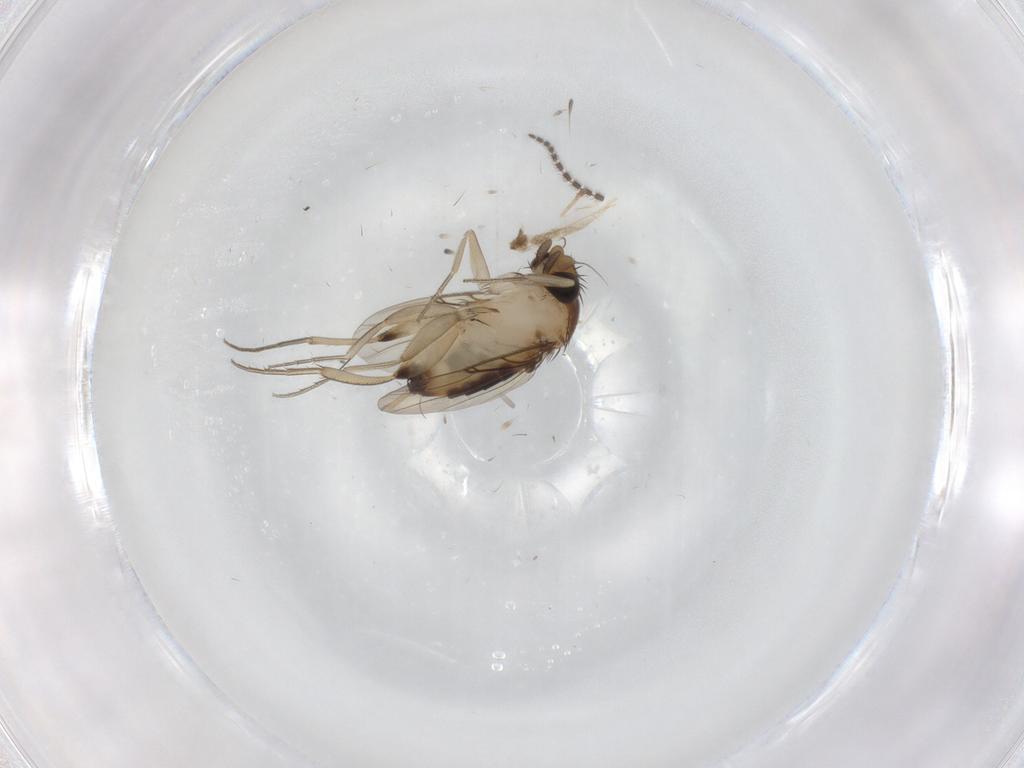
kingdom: Animalia
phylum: Arthropoda
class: Insecta
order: Diptera
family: Phoridae
